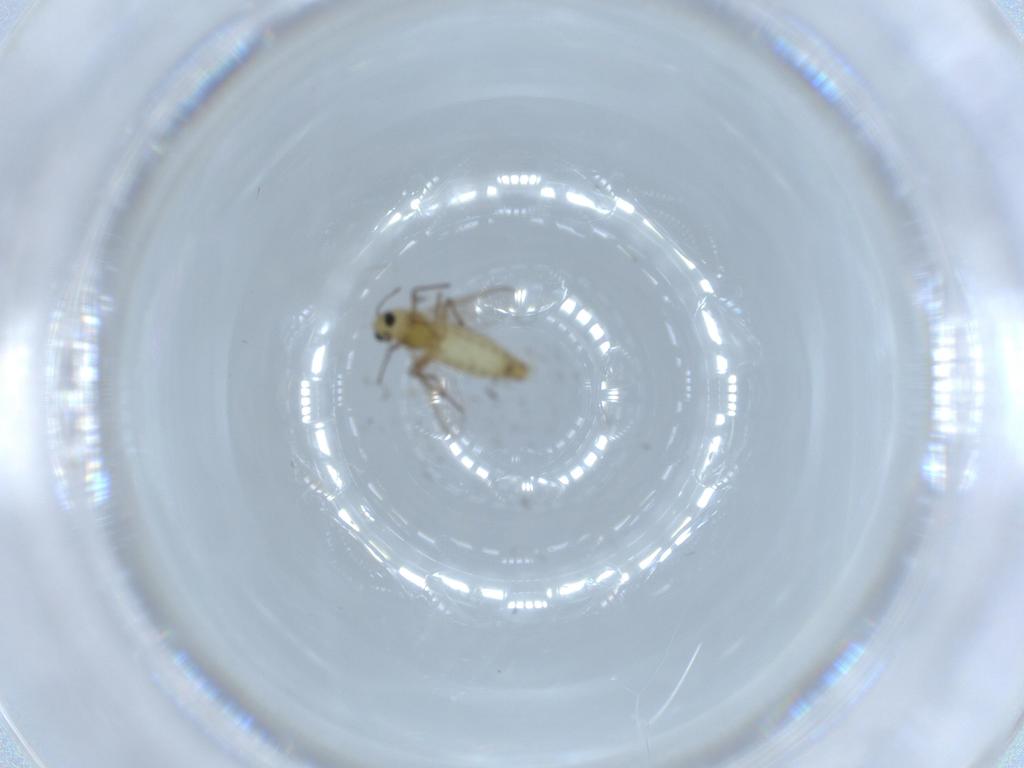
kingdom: Animalia
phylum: Arthropoda
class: Insecta
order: Diptera
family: Chironomidae
